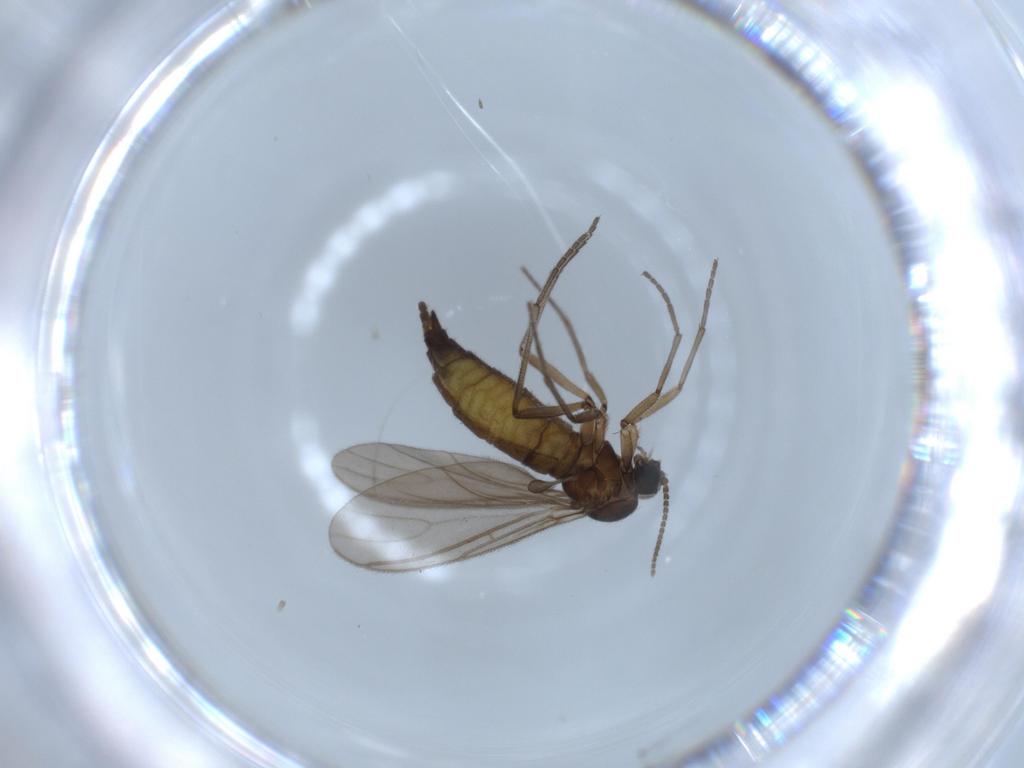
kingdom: Animalia
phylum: Arthropoda
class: Insecta
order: Diptera
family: Sciaridae
